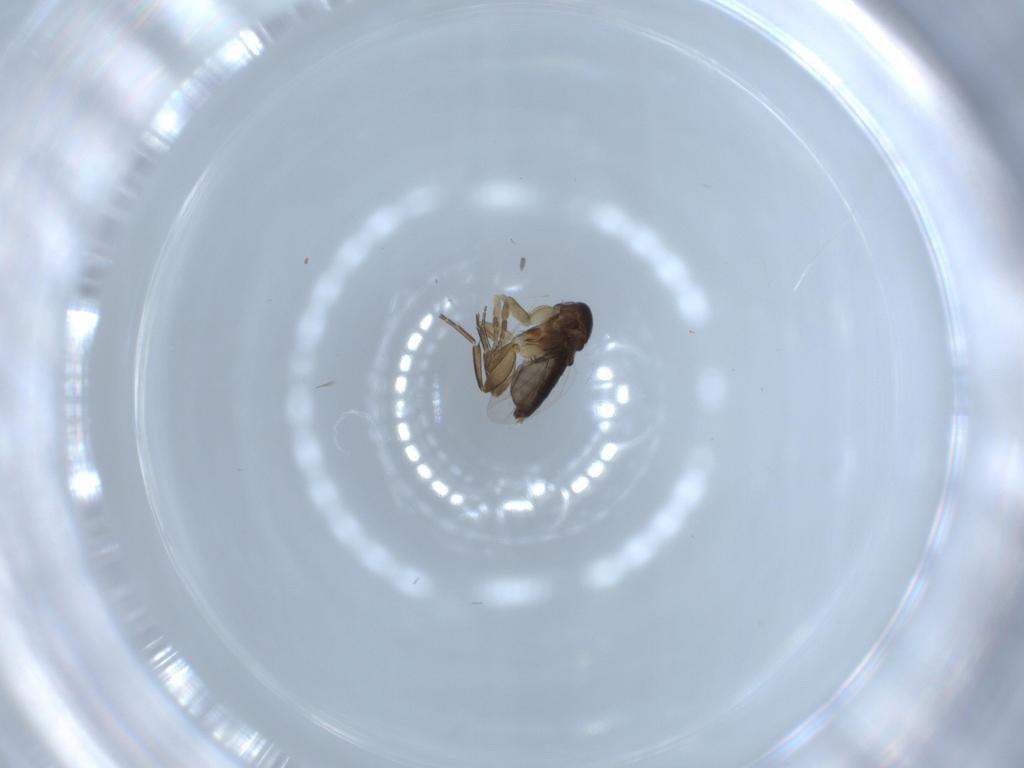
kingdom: Animalia
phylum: Arthropoda
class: Insecta
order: Diptera
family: Phoridae
